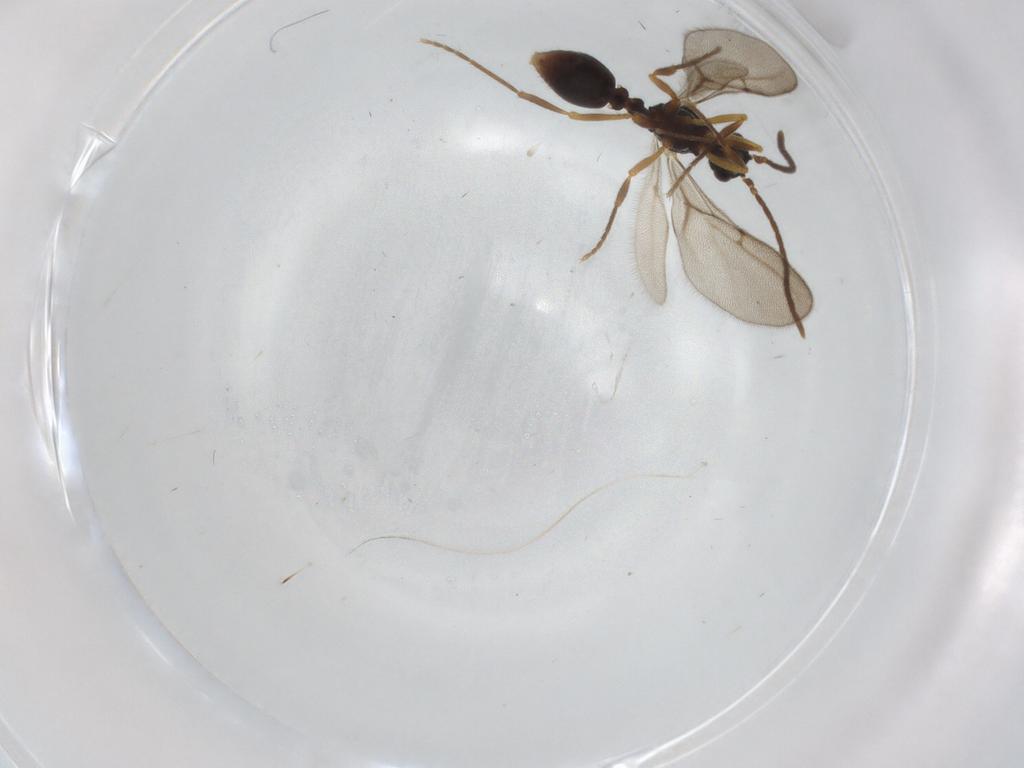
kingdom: Animalia
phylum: Arthropoda
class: Insecta
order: Hymenoptera
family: Formicidae
